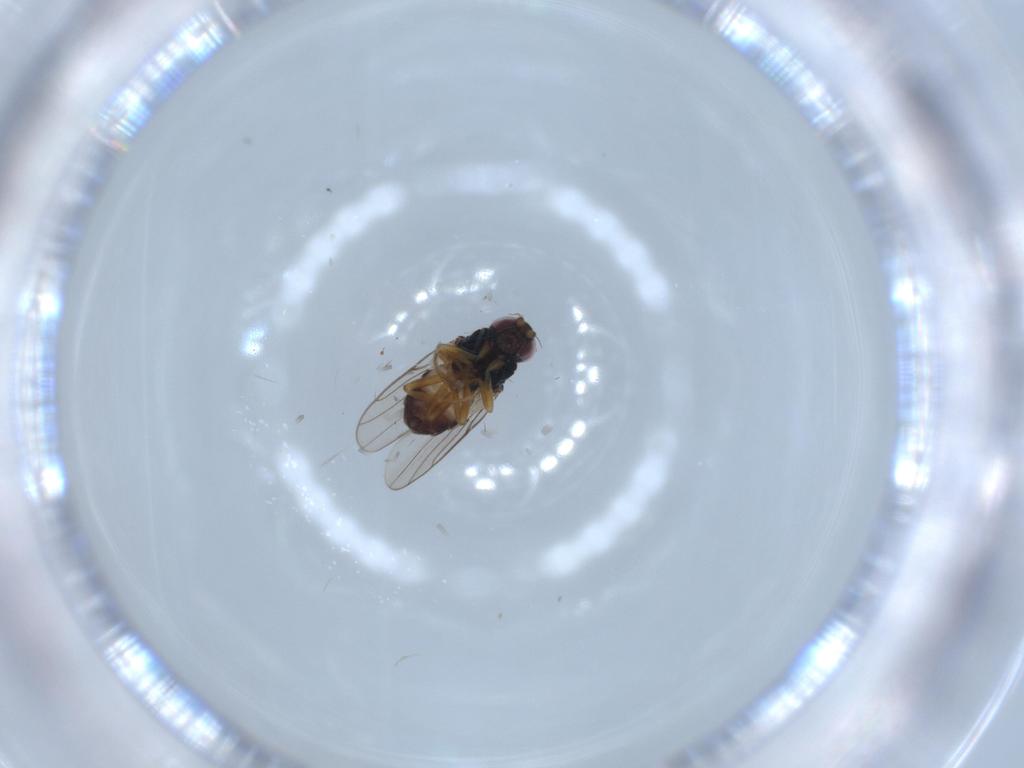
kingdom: Animalia
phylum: Arthropoda
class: Insecta
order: Diptera
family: Chloropidae
